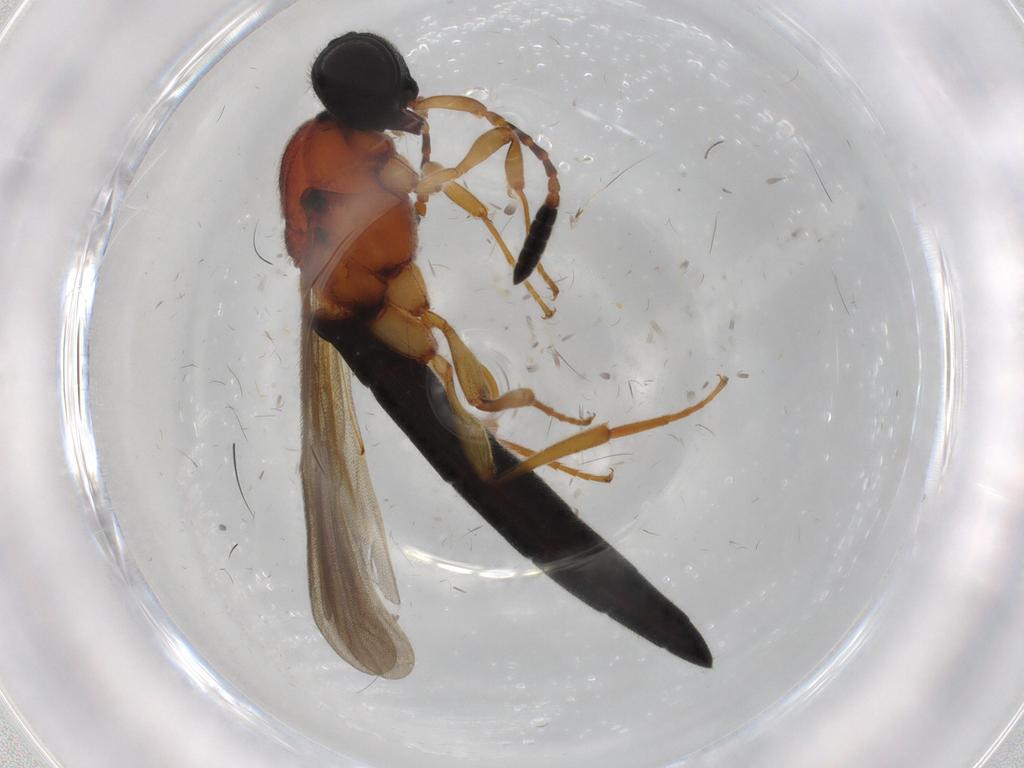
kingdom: Animalia
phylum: Arthropoda
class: Insecta
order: Hymenoptera
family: Scelionidae
